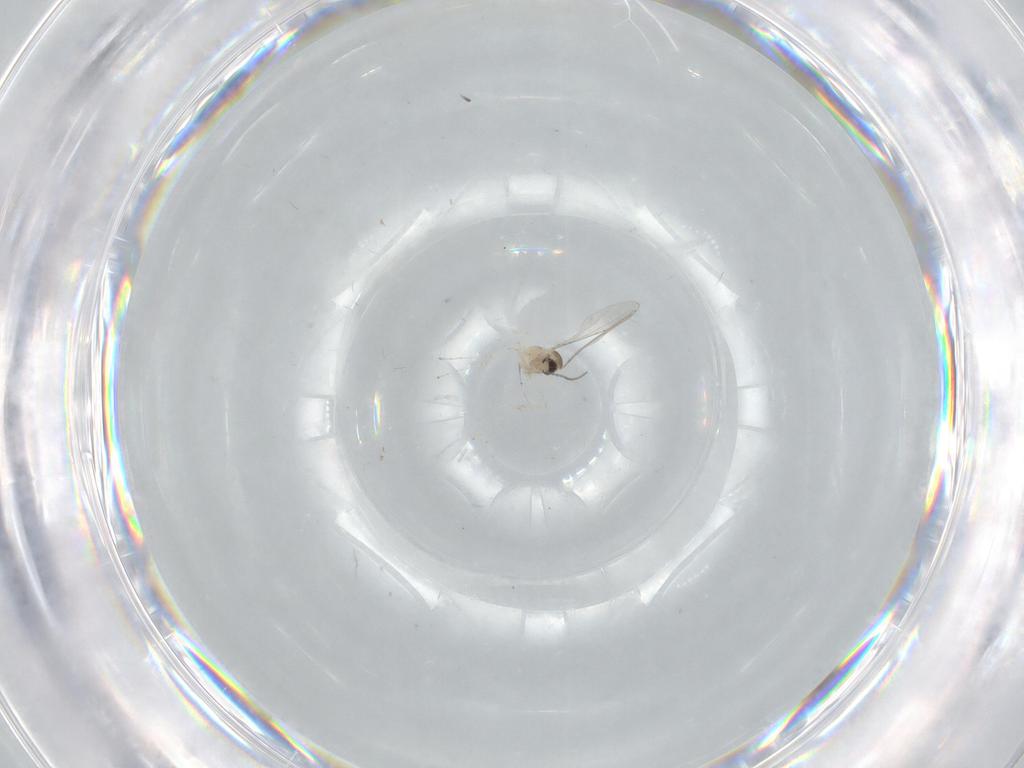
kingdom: Animalia
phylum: Arthropoda
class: Insecta
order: Diptera
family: Cecidomyiidae
